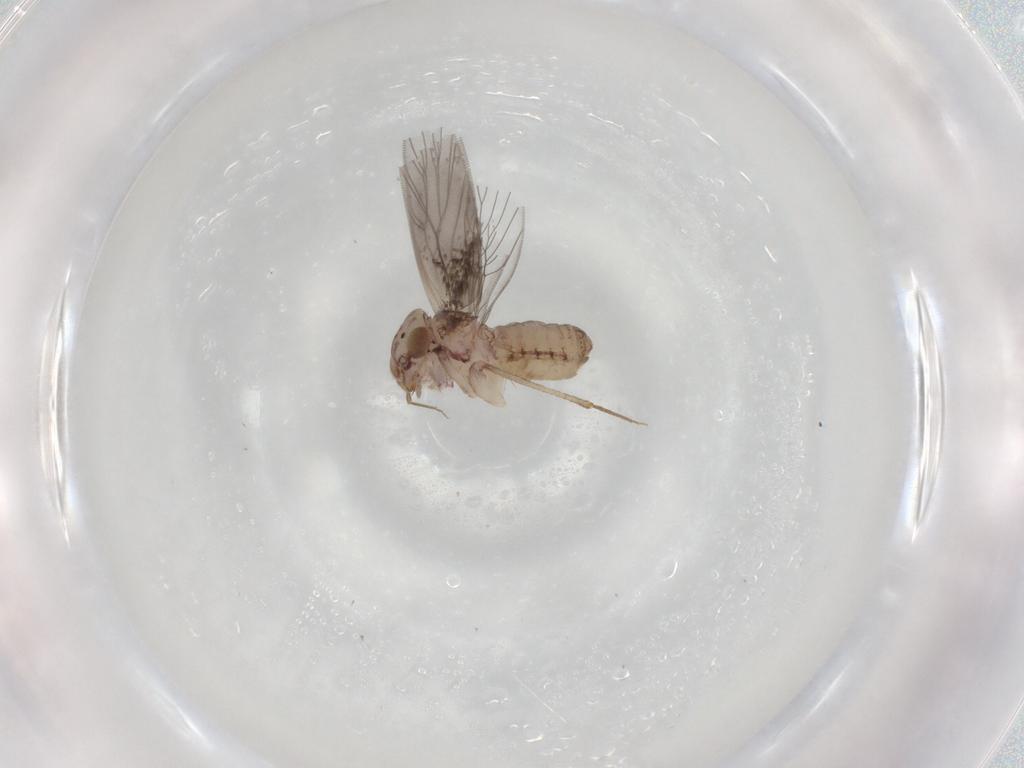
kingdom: Animalia
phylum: Arthropoda
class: Insecta
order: Psocodea
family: Lepidopsocidae
